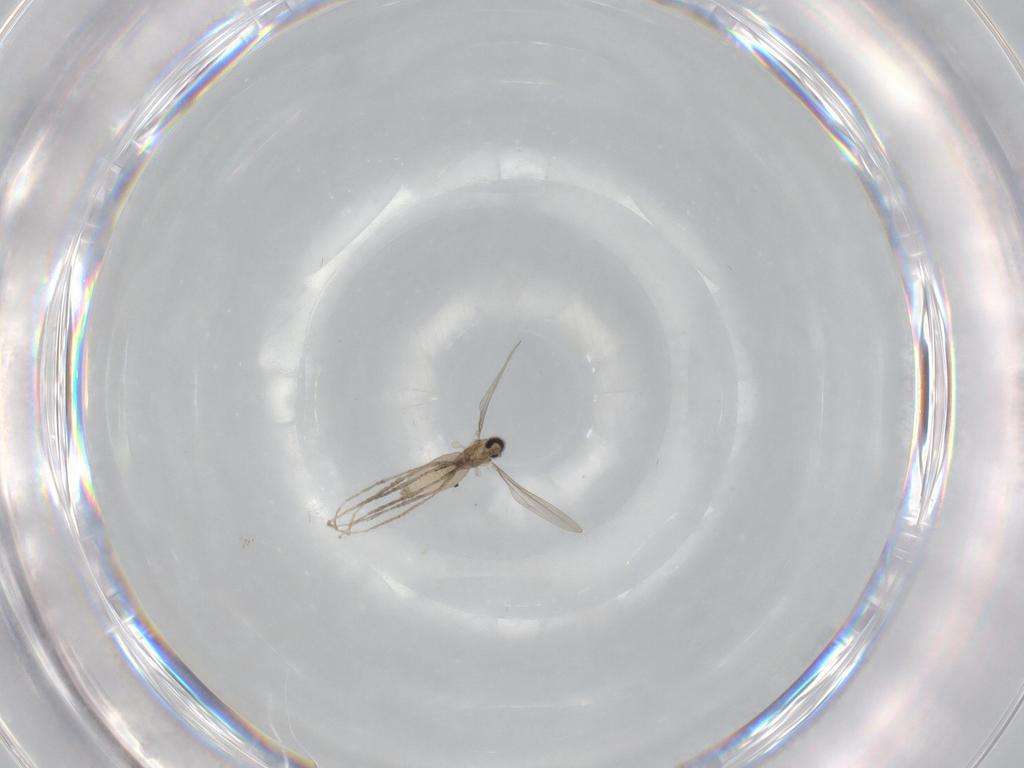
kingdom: Animalia
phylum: Arthropoda
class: Insecta
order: Diptera
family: Cecidomyiidae
